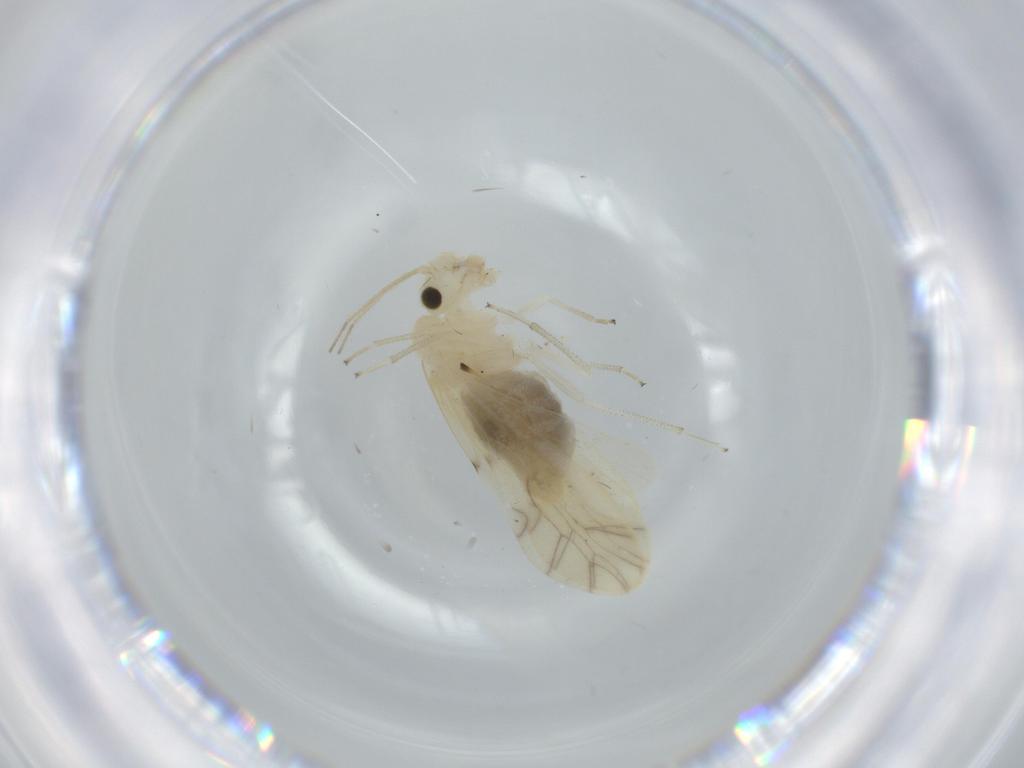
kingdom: Animalia
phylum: Arthropoda
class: Insecta
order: Psocodea
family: Caeciliusidae
